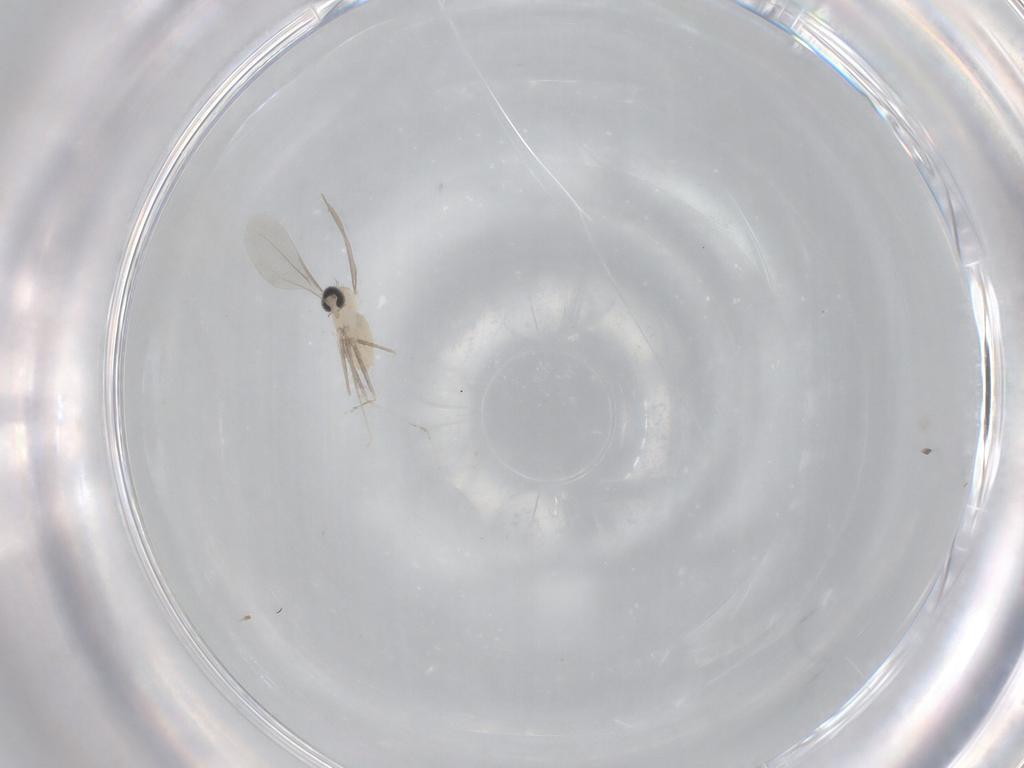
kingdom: Animalia
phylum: Arthropoda
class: Insecta
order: Diptera
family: Cecidomyiidae
